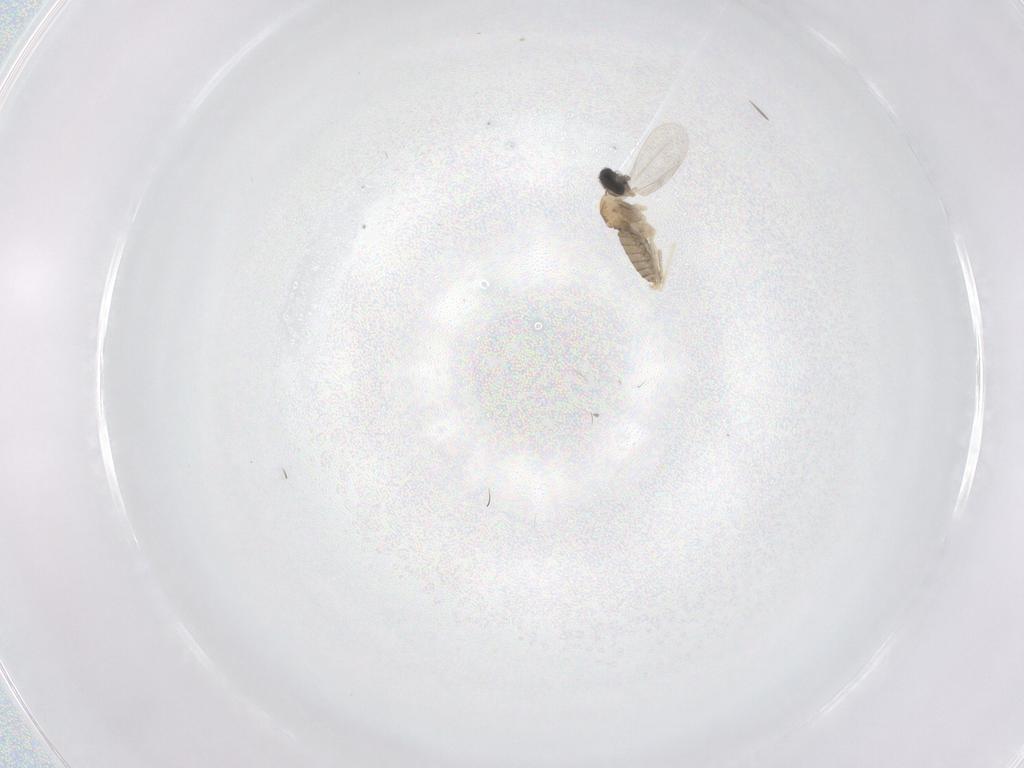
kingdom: Animalia
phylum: Arthropoda
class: Insecta
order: Diptera
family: Cecidomyiidae
